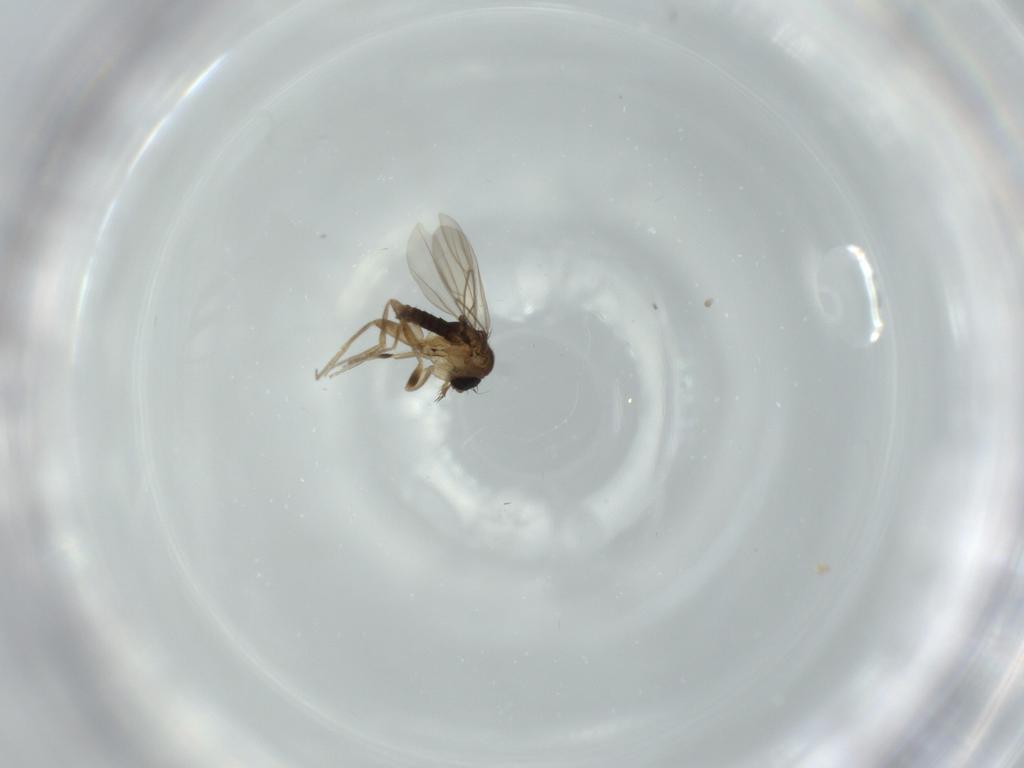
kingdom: Animalia
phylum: Arthropoda
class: Insecta
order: Diptera
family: Phoridae
